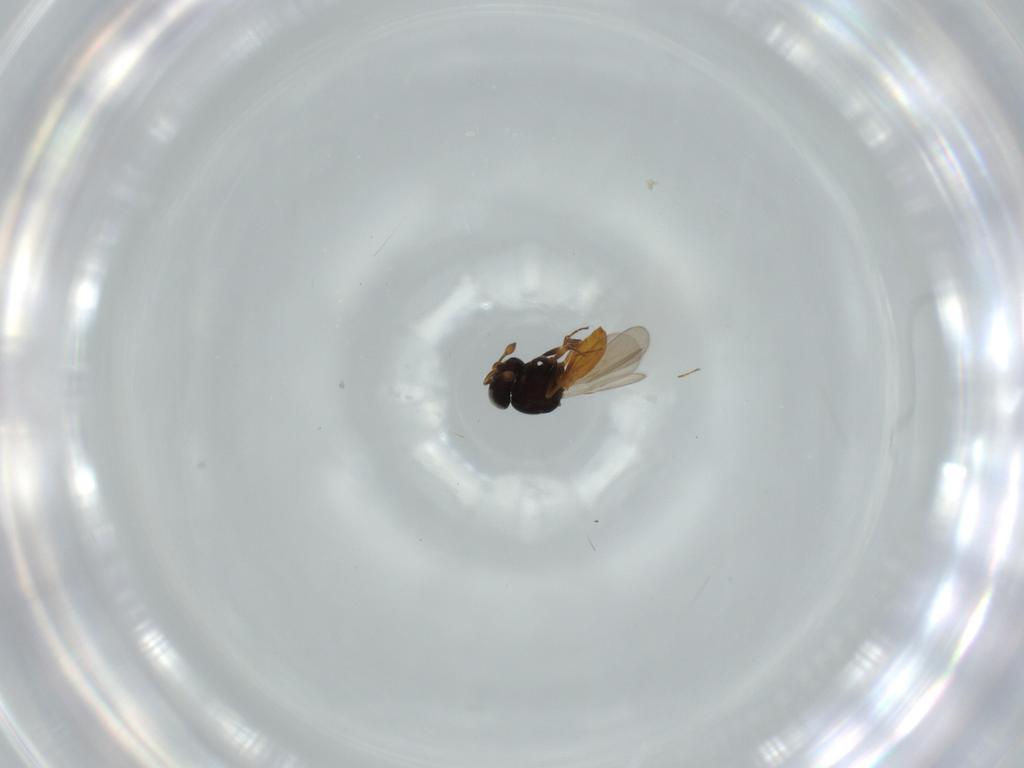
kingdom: Animalia
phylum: Arthropoda
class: Insecta
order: Hymenoptera
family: Scelionidae
